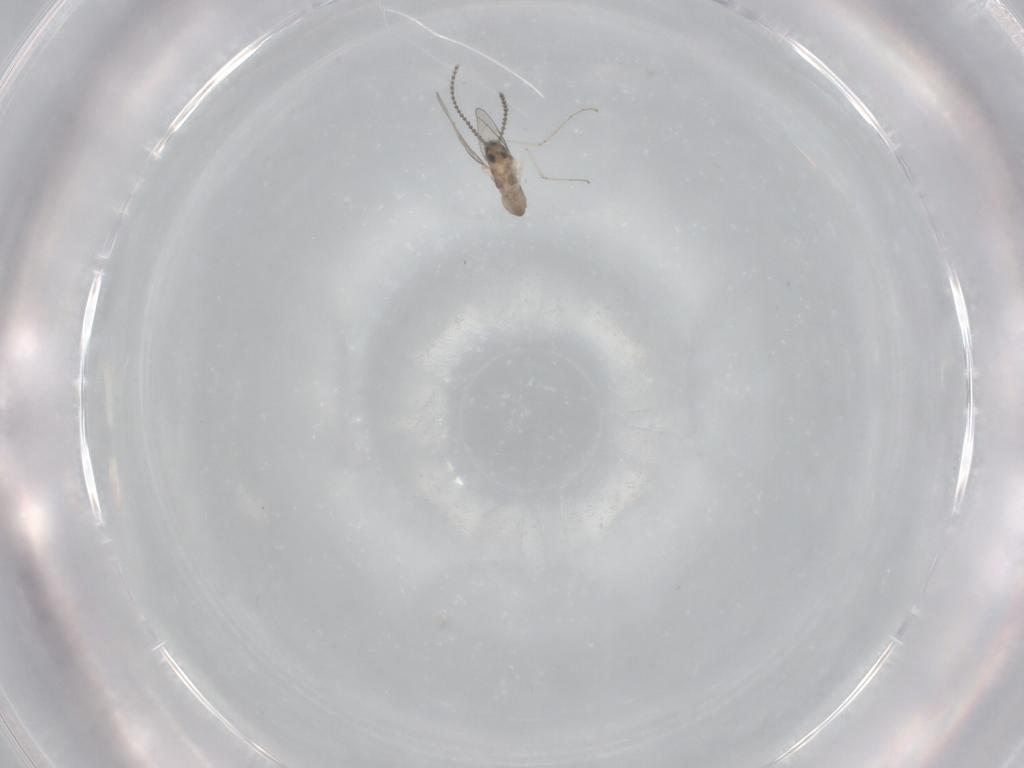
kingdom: Animalia
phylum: Arthropoda
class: Insecta
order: Diptera
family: Cecidomyiidae
